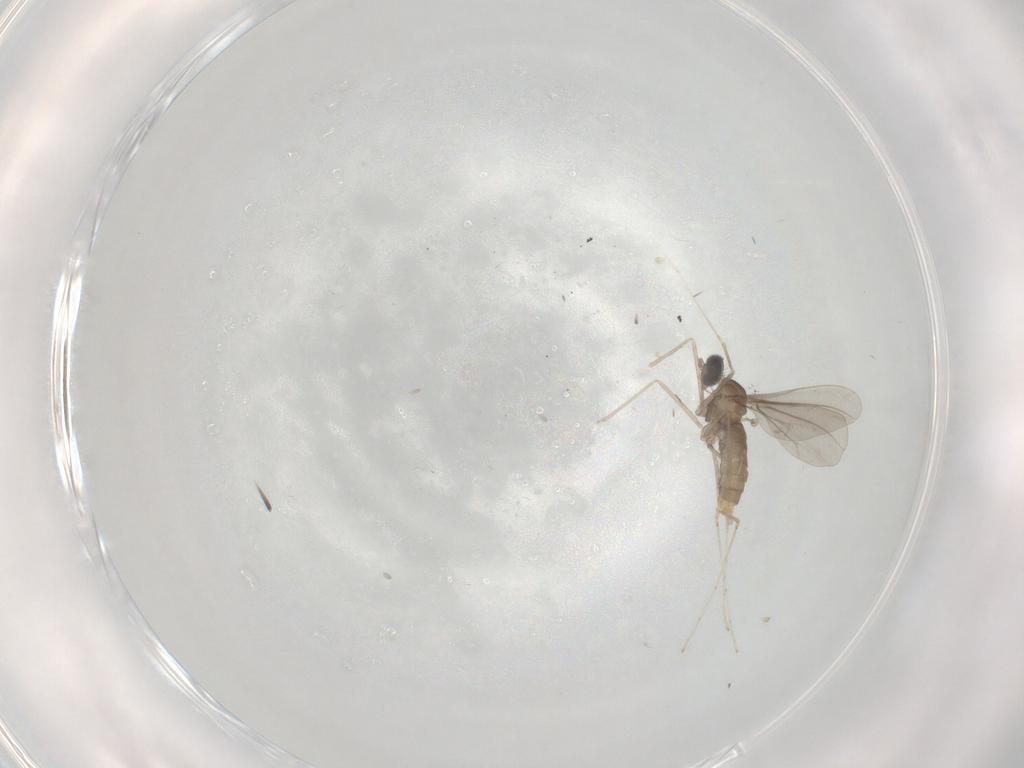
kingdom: Animalia
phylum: Arthropoda
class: Insecta
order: Diptera
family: Cecidomyiidae
